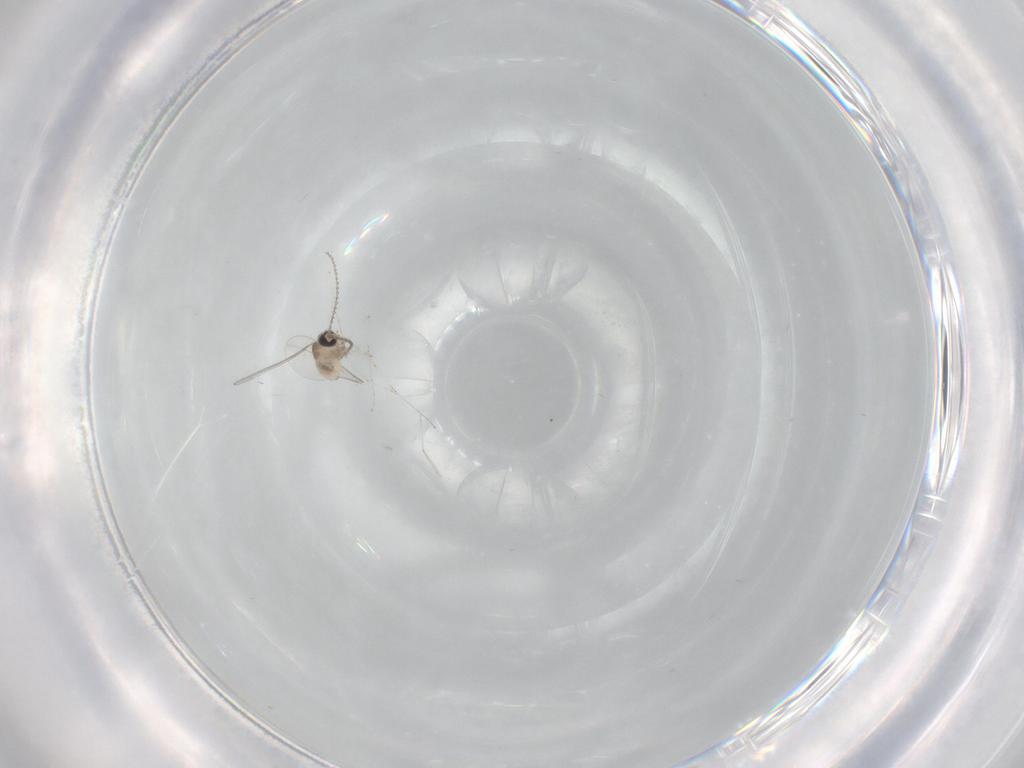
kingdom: Animalia
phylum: Arthropoda
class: Insecta
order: Diptera
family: Cecidomyiidae
